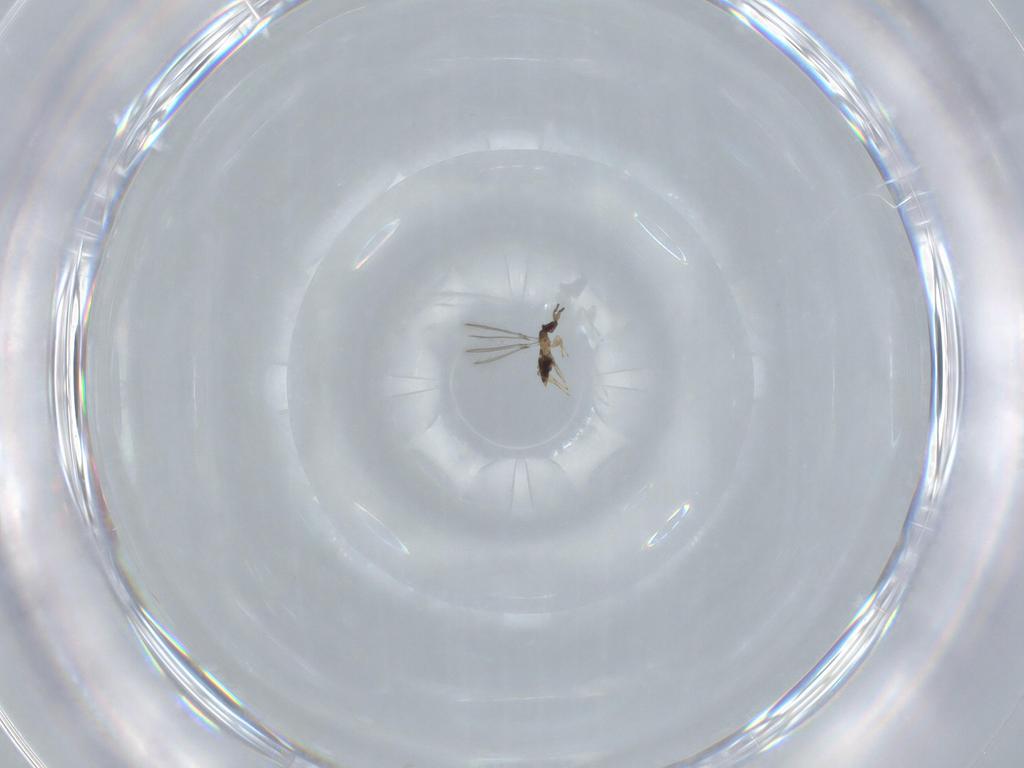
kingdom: Animalia
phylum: Arthropoda
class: Insecta
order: Hymenoptera
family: Mymaridae
